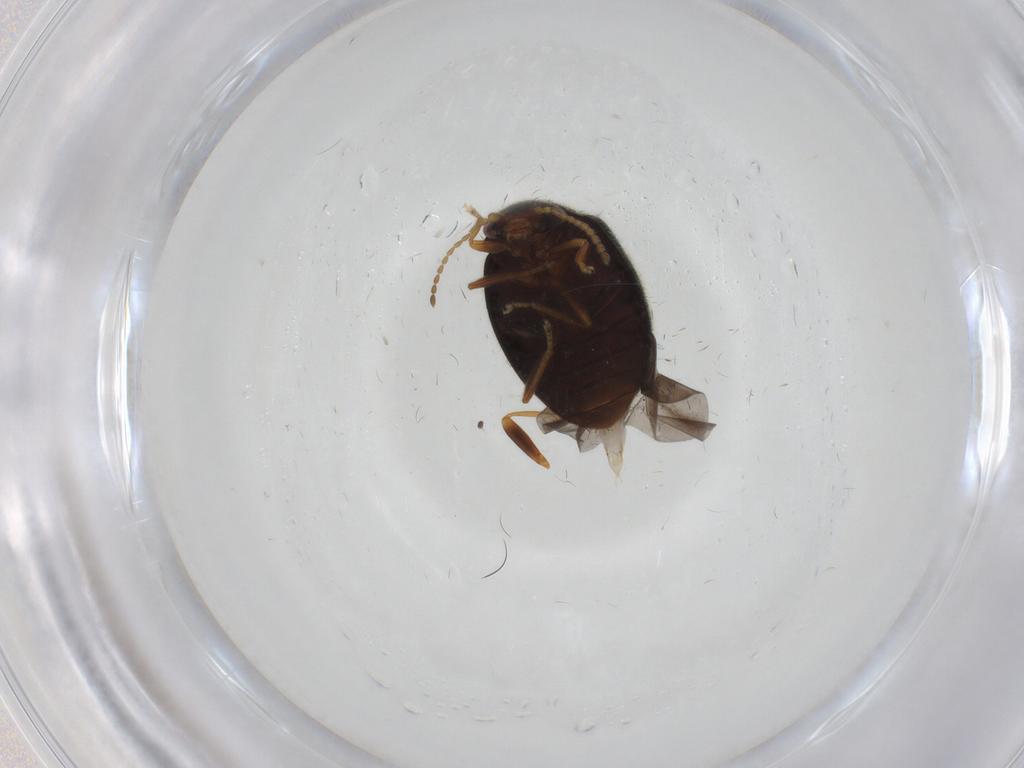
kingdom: Animalia
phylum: Arthropoda
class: Insecta
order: Coleoptera
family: Scirtidae
